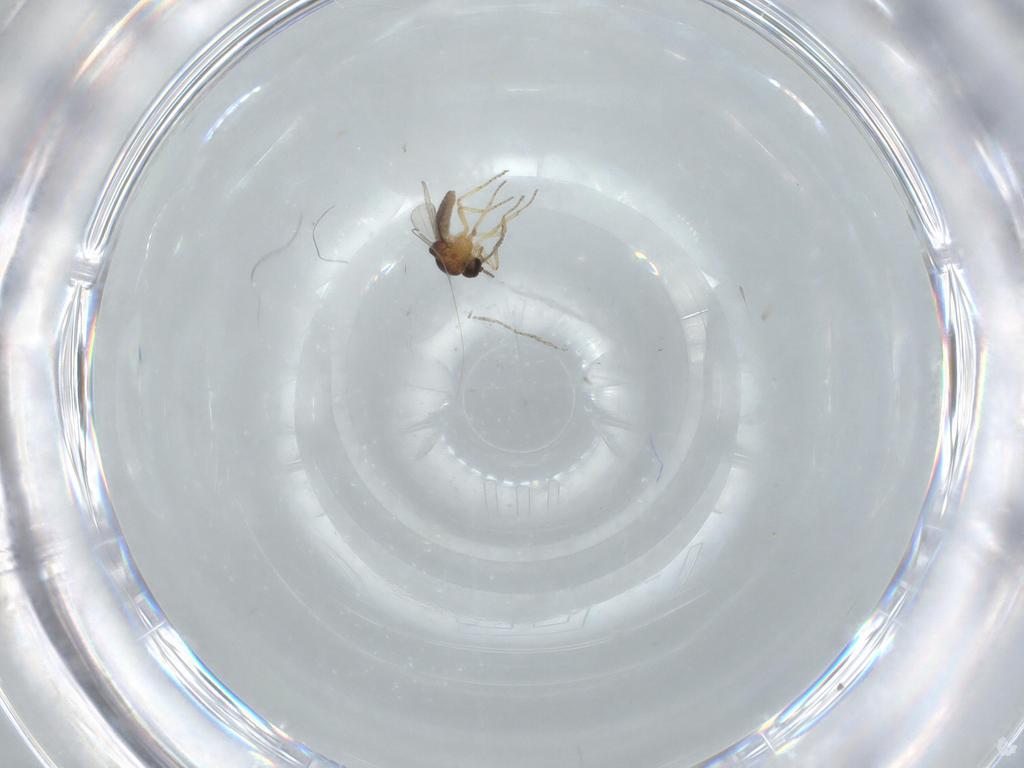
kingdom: Animalia
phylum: Arthropoda
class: Insecta
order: Diptera
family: Ceratopogonidae
